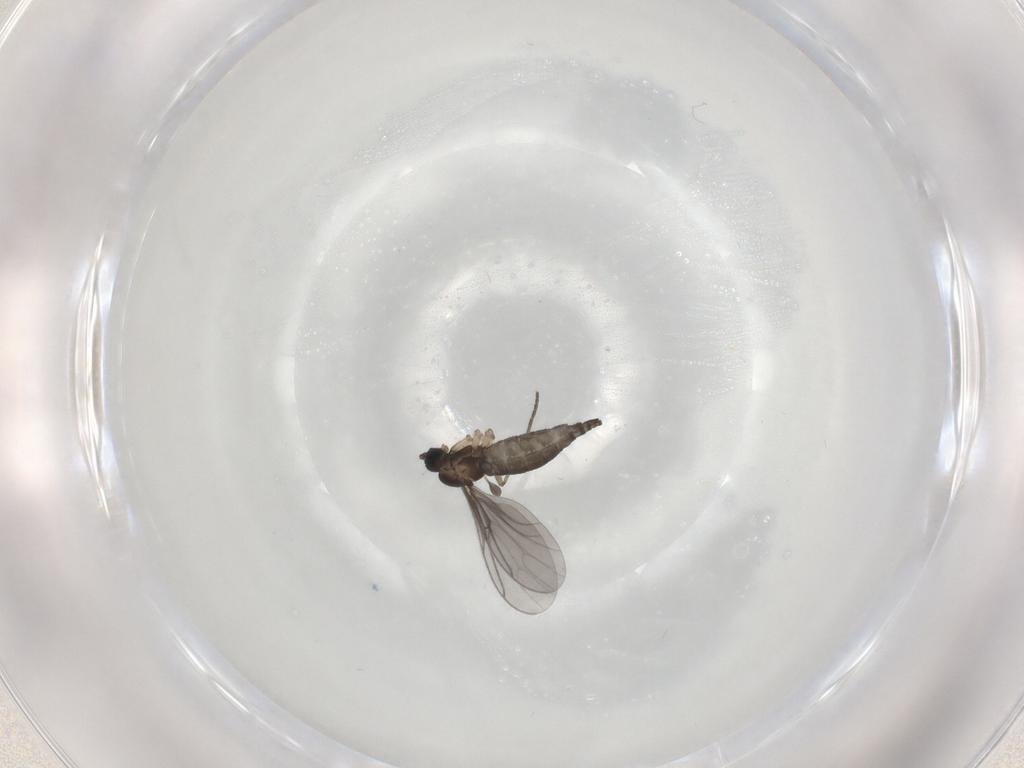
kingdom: Animalia
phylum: Arthropoda
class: Insecta
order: Diptera
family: Sciaridae
